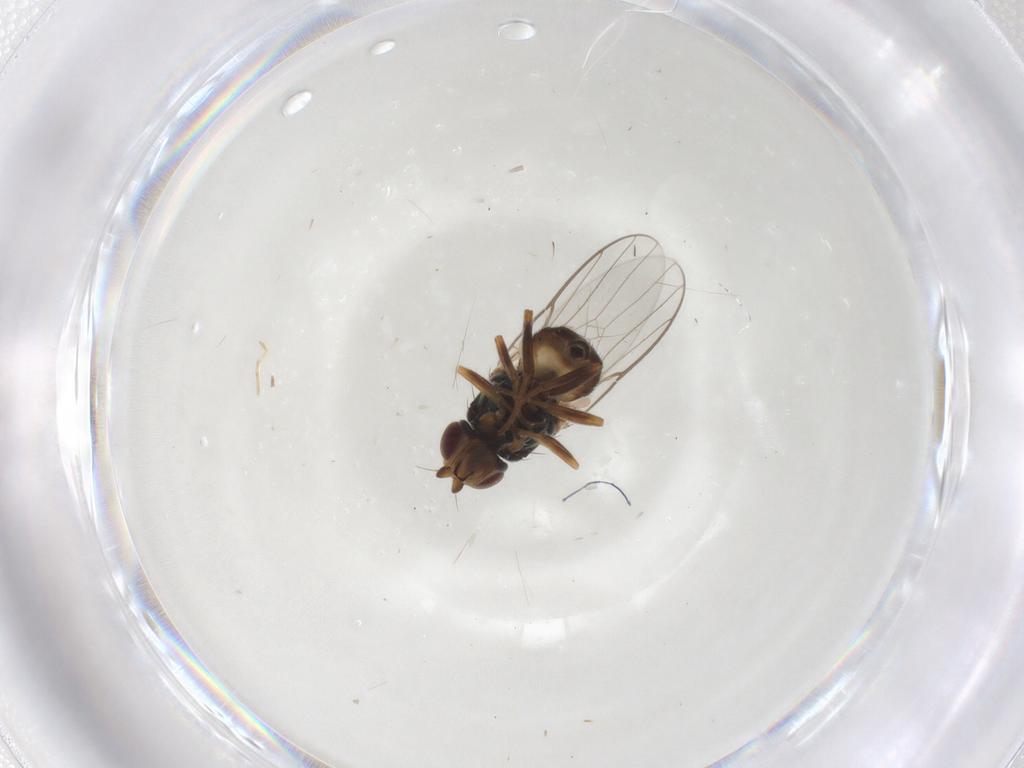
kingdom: Animalia
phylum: Arthropoda
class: Insecta
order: Diptera
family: Chloropidae
